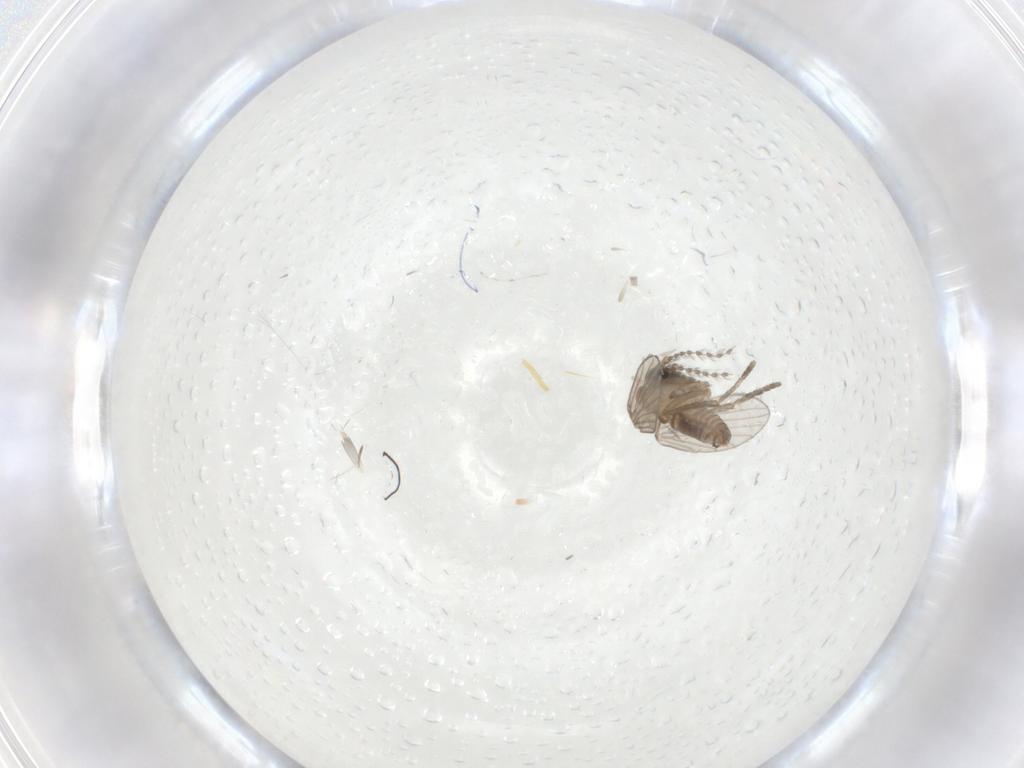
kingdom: Animalia
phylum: Arthropoda
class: Insecta
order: Diptera
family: Psychodidae
